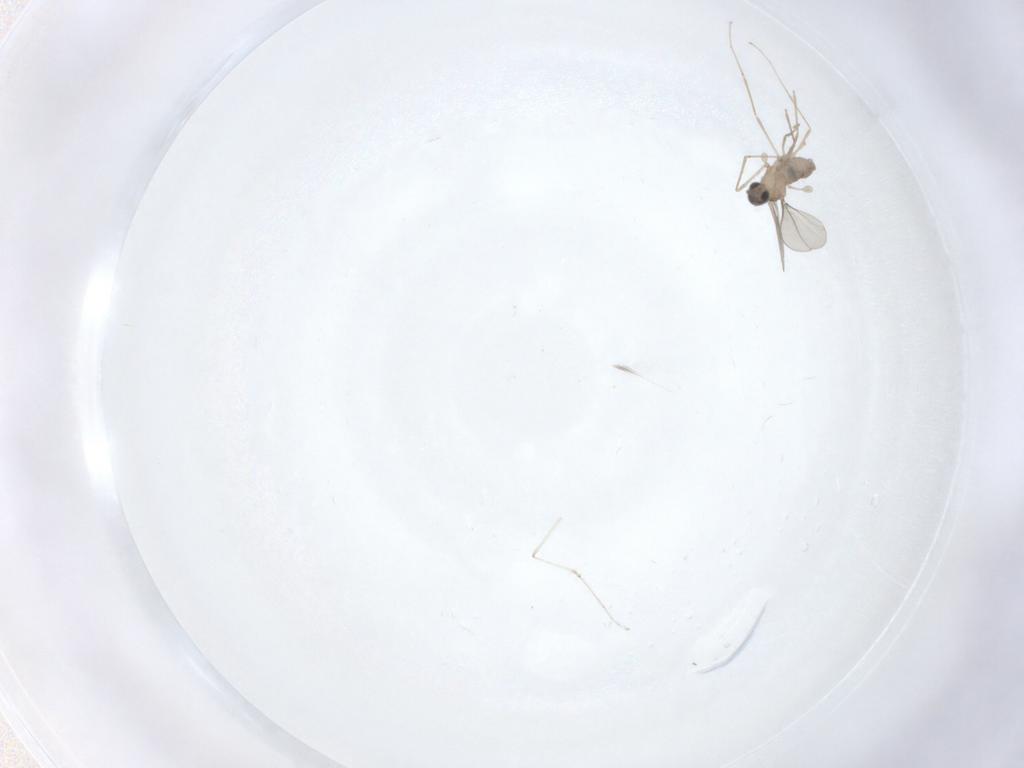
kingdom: Animalia
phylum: Arthropoda
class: Insecta
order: Diptera
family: Cecidomyiidae
